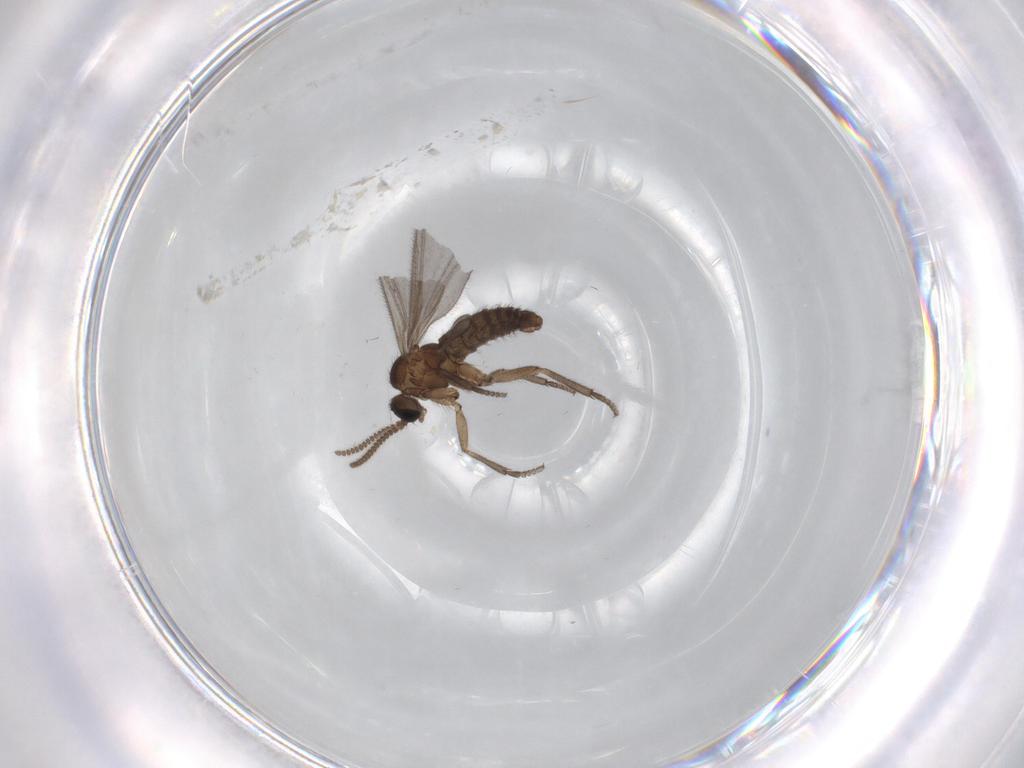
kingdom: Animalia
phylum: Arthropoda
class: Insecta
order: Diptera
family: Sciaridae
